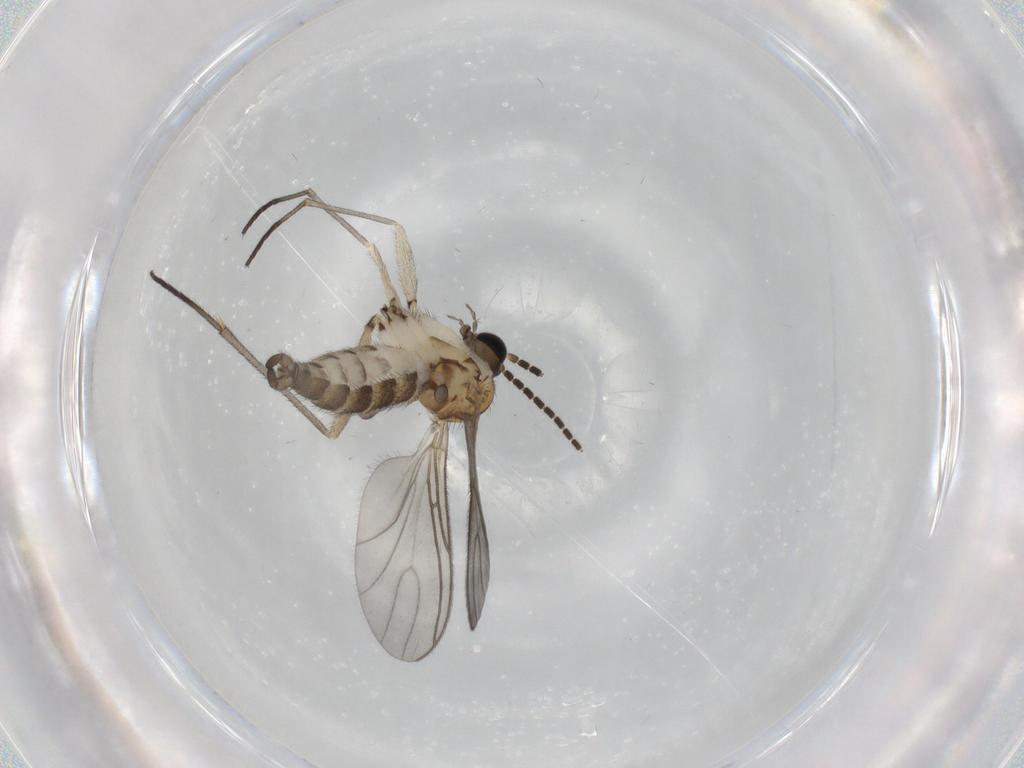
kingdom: Animalia
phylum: Arthropoda
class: Insecta
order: Diptera
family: Sciaridae
